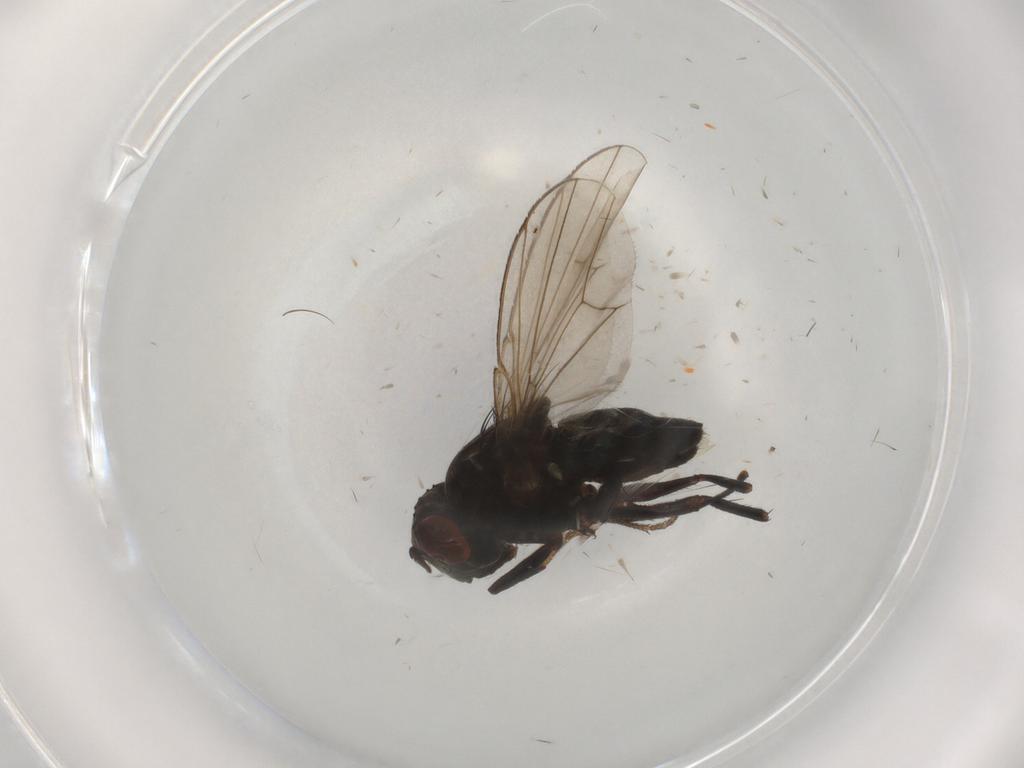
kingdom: Animalia
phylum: Arthropoda
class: Insecta
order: Diptera
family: Ephydridae
